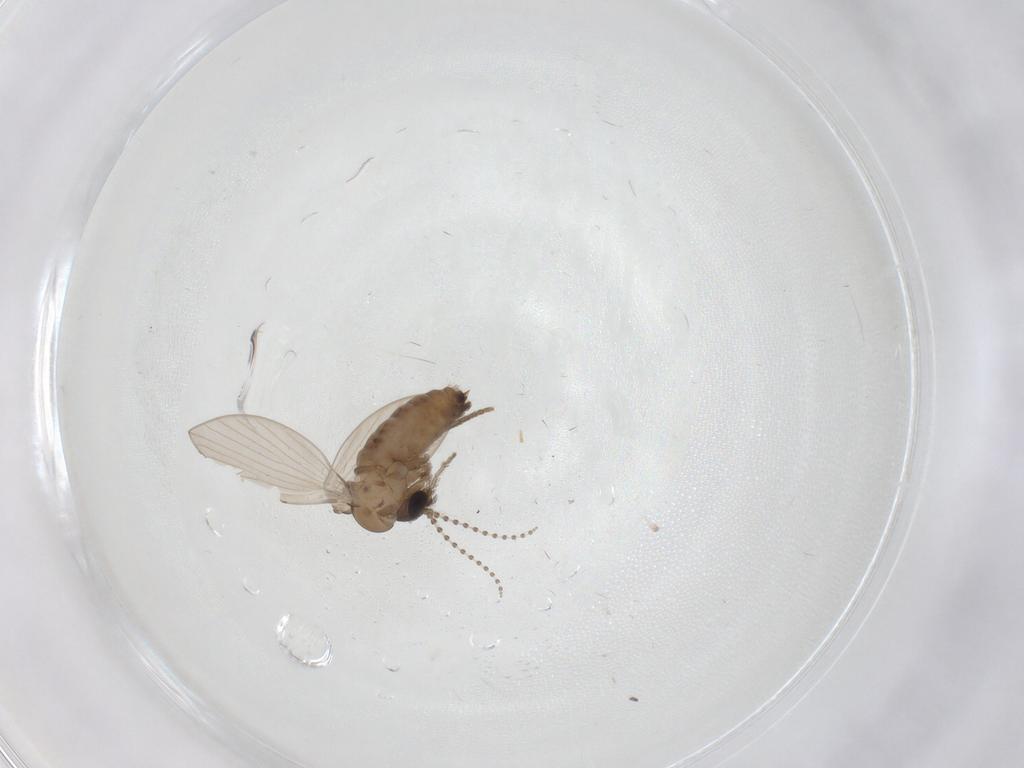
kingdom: Animalia
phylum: Arthropoda
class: Insecta
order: Diptera
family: Psychodidae
